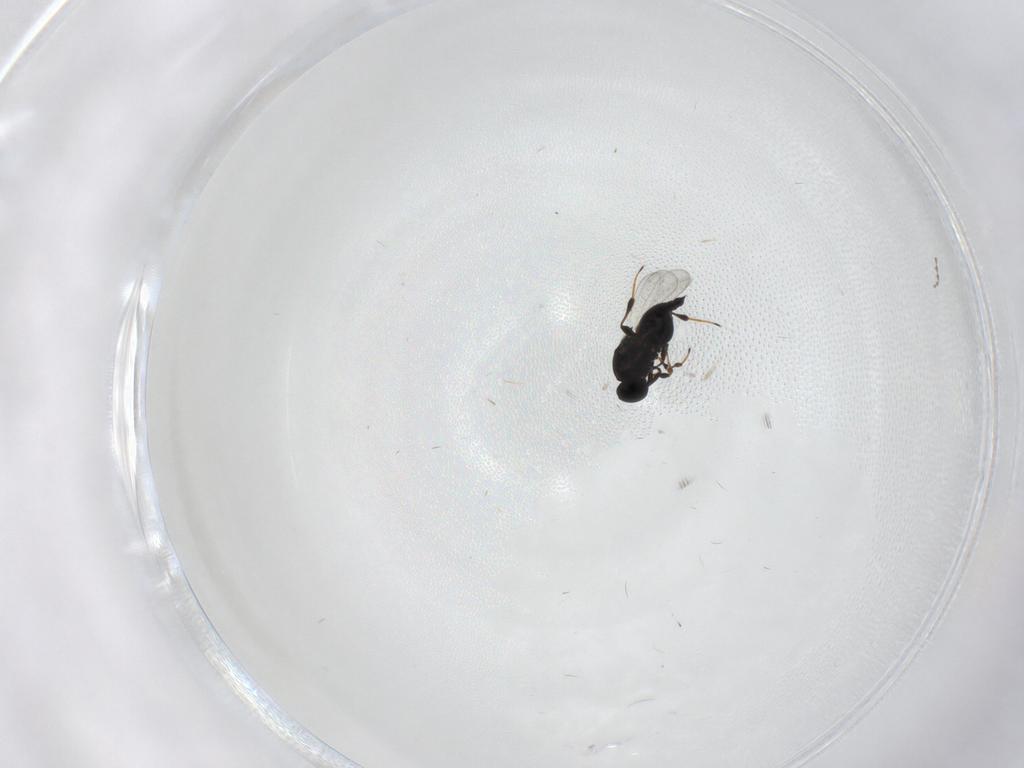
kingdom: Animalia
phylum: Arthropoda
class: Insecta
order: Hymenoptera
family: Platygastridae
